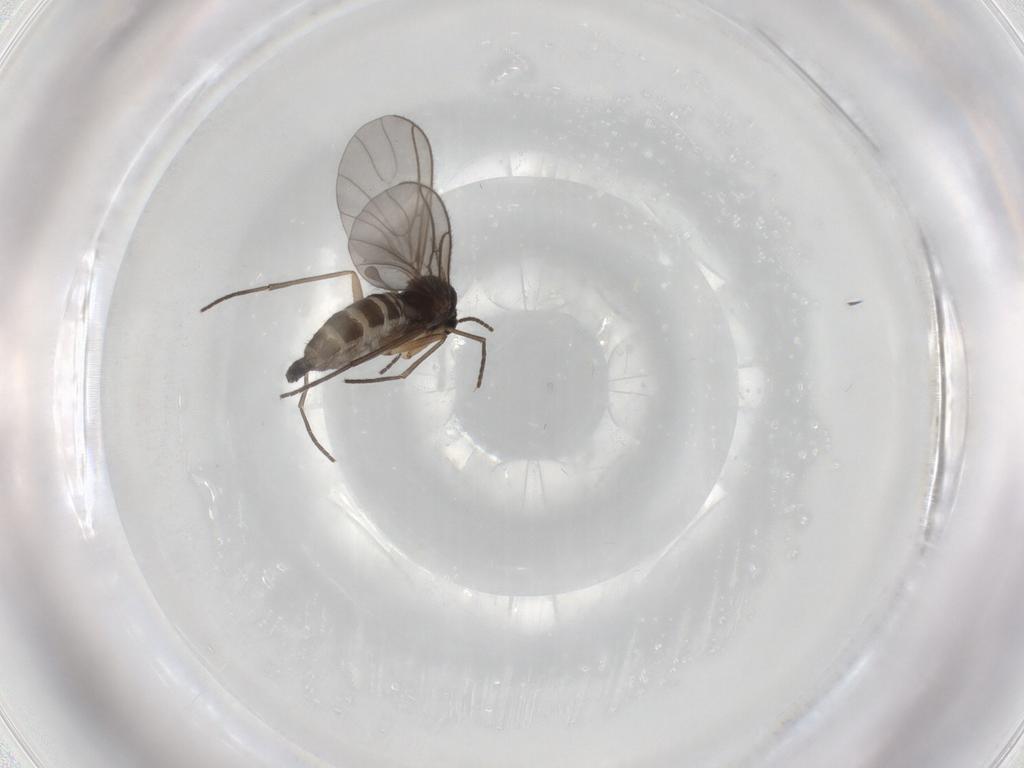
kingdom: Animalia
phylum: Arthropoda
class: Insecta
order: Diptera
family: Sciaridae
